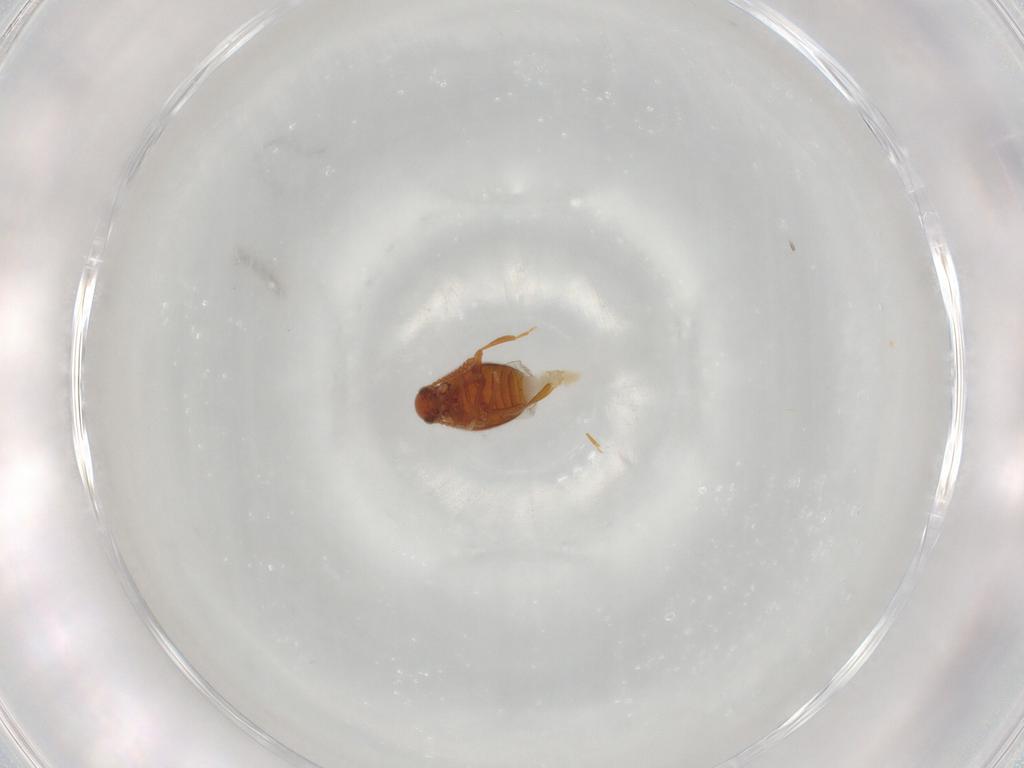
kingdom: Animalia
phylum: Arthropoda
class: Insecta
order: Coleoptera
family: Aderidae
